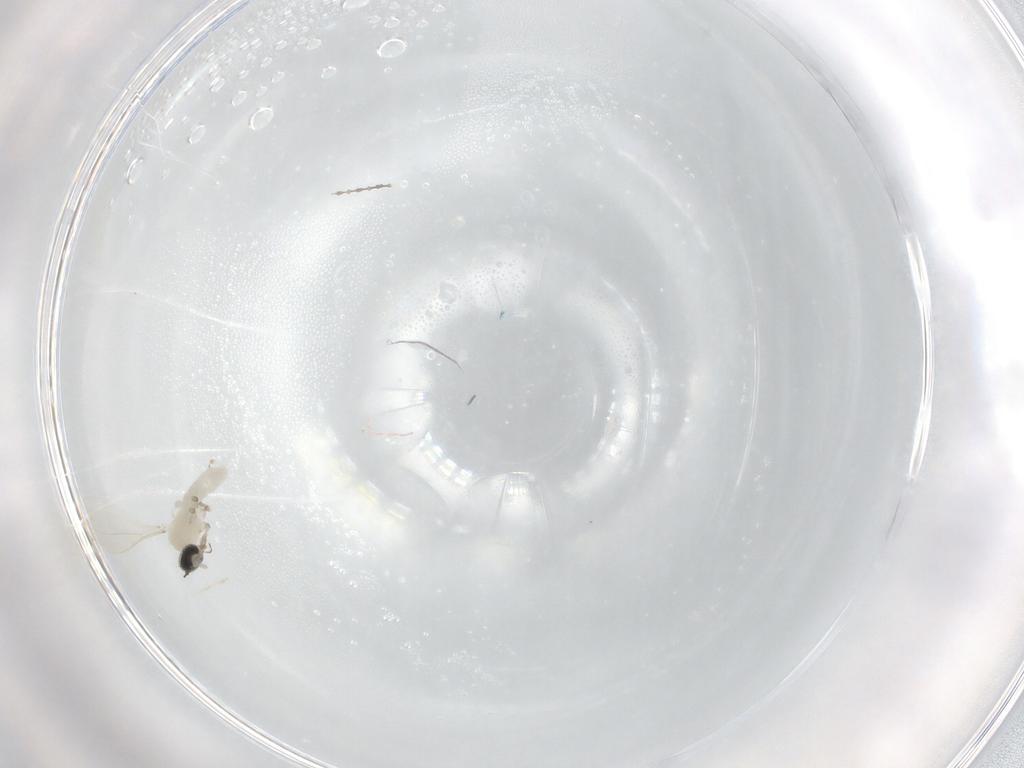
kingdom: Animalia
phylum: Arthropoda
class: Insecta
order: Diptera
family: Cecidomyiidae
